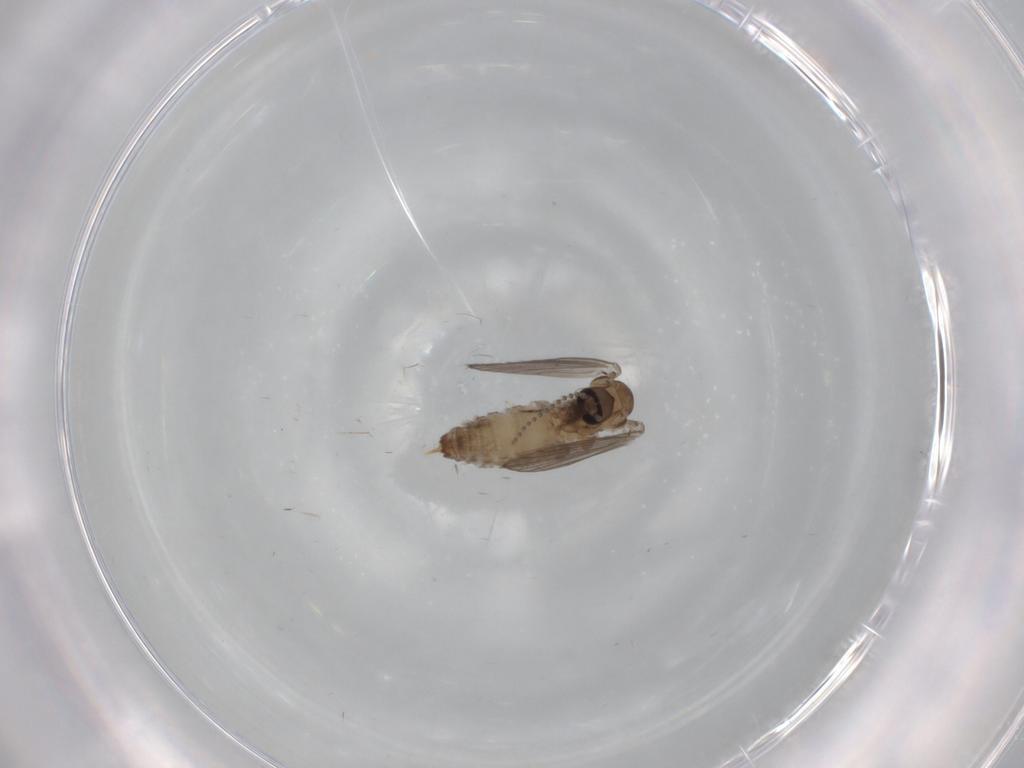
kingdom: Animalia
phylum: Arthropoda
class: Insecta
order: Diptera
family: Psychodidae
